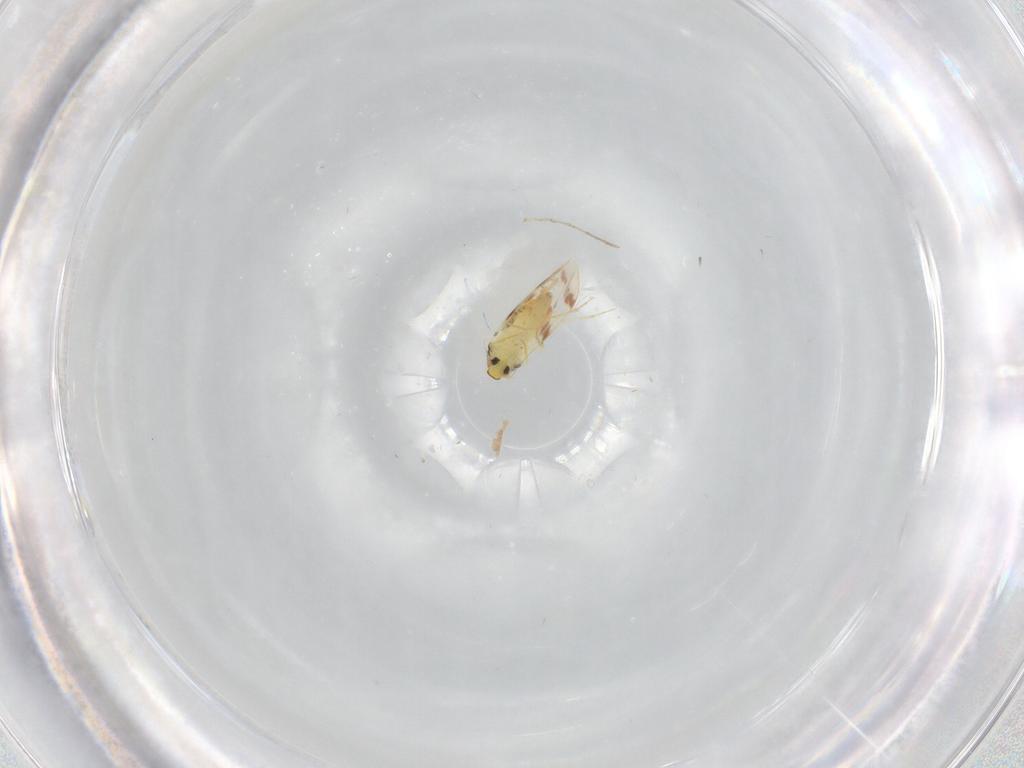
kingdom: Animalia
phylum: Arthropoda
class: Insecta
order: Hemiptera
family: Aleyrodidae
